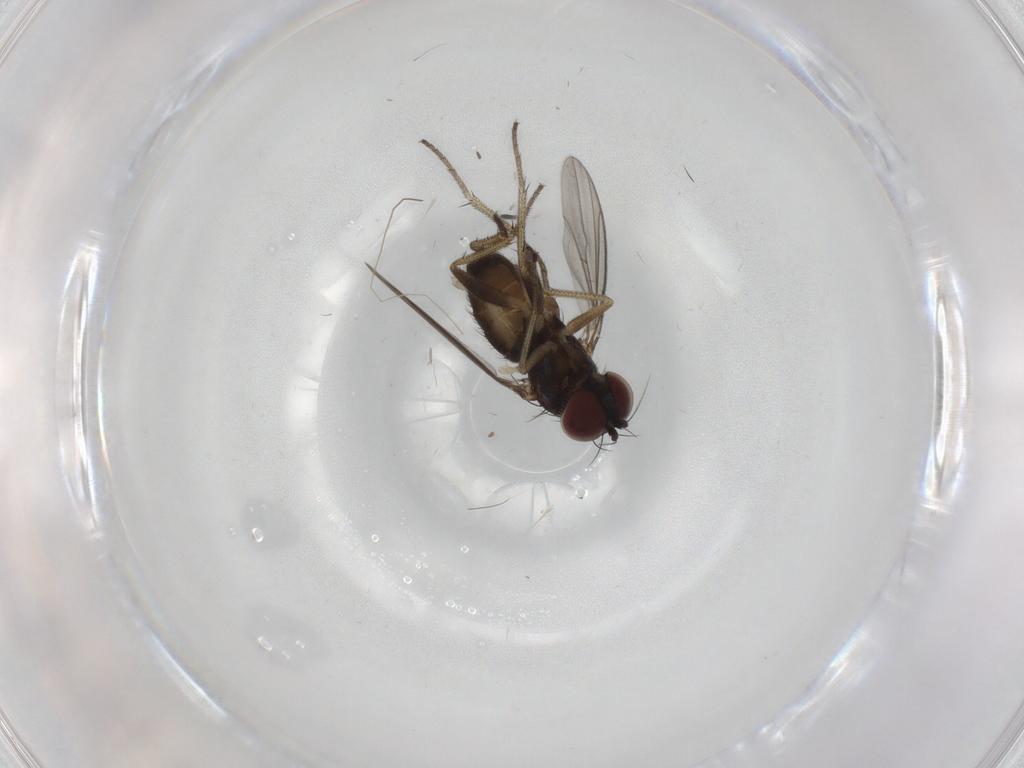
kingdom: Animalia
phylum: Arthropoda
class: Insecta
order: Diptera
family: Dolichopodidae
